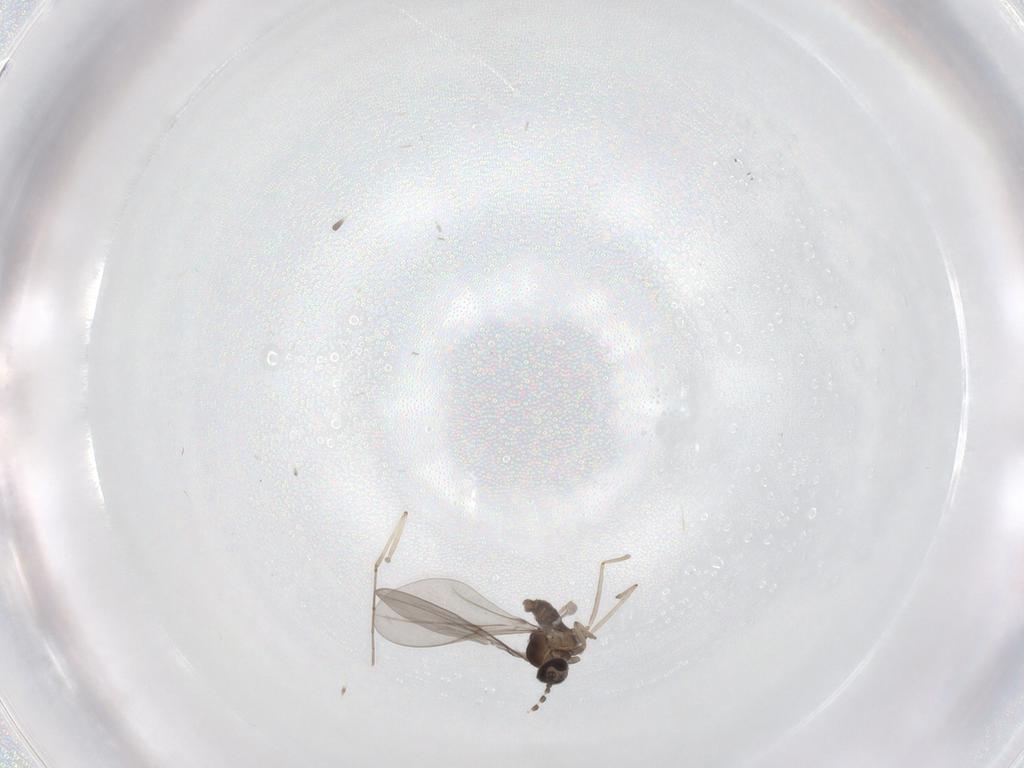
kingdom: Animalia
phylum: Arthropoda
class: Insecta
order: Diptera
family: Cecidomyiidae
